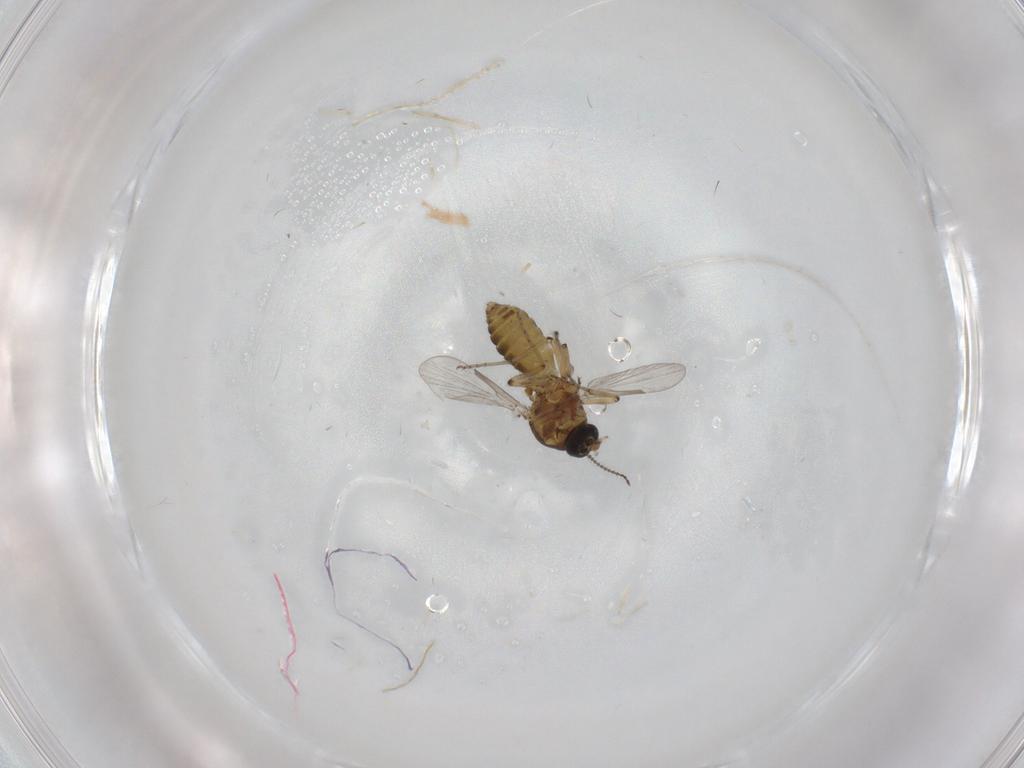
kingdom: Animalia
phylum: Arthropoda
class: Insecta
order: Diptera
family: Ceratopogonidae
